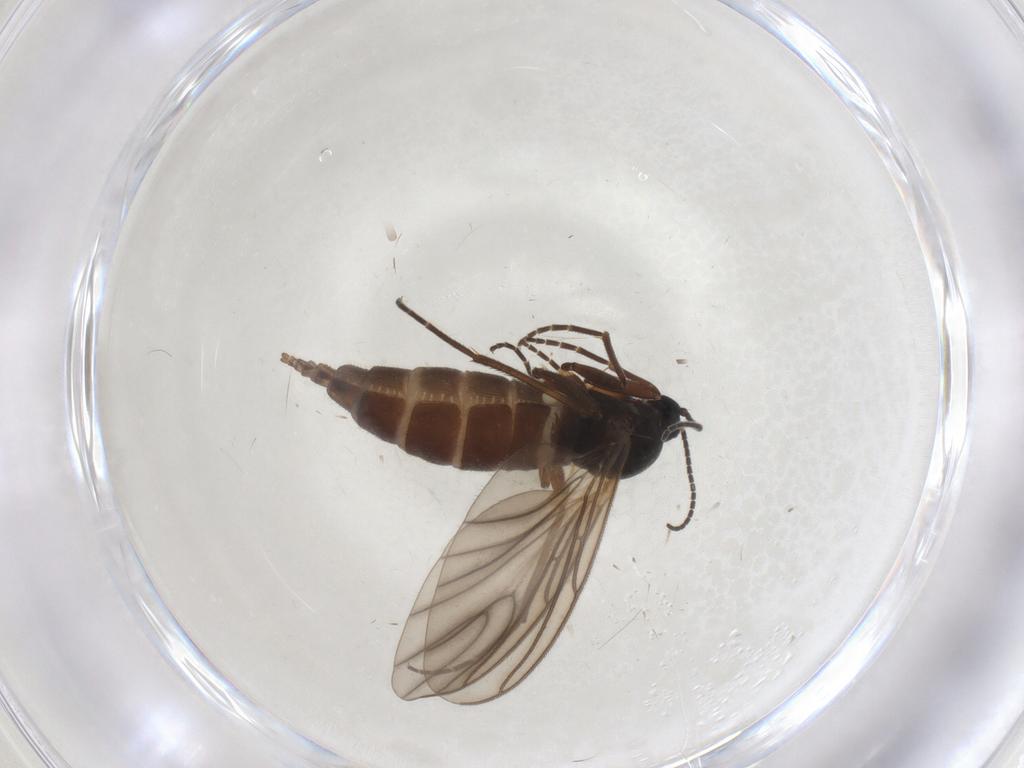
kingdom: Animalia
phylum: Arthropoda
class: Insecta
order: Diptera
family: Sciaridae
